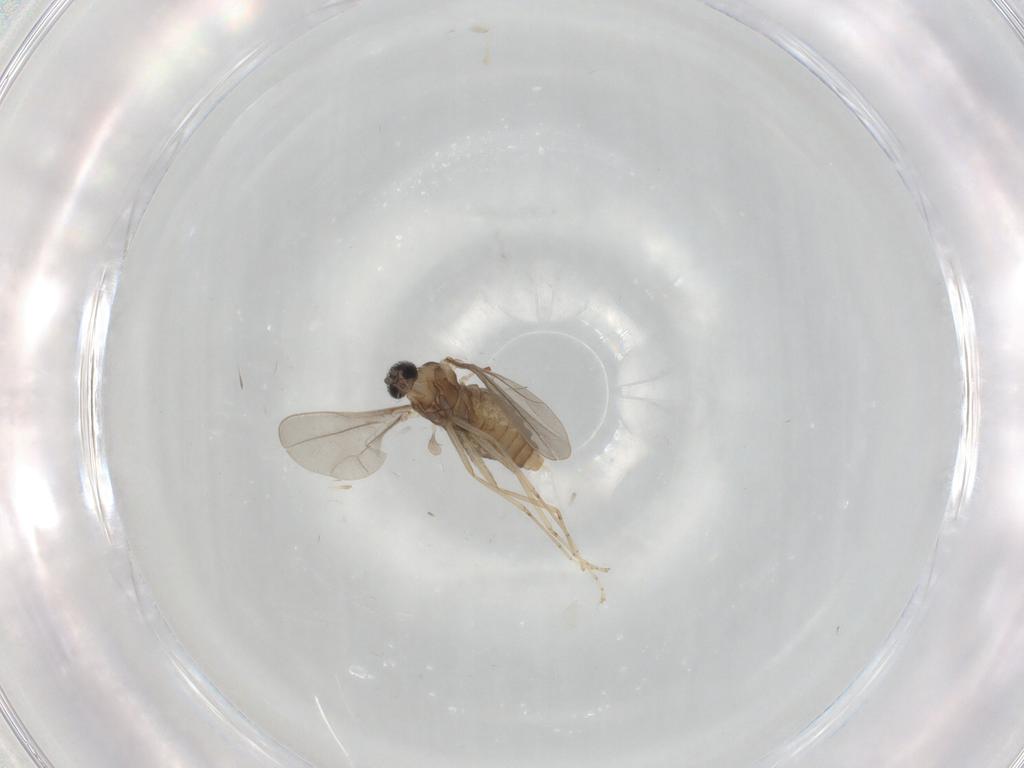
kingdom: Animalia
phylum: Arthropoda
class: Insecta
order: Diptera
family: Cecidomyiidae
